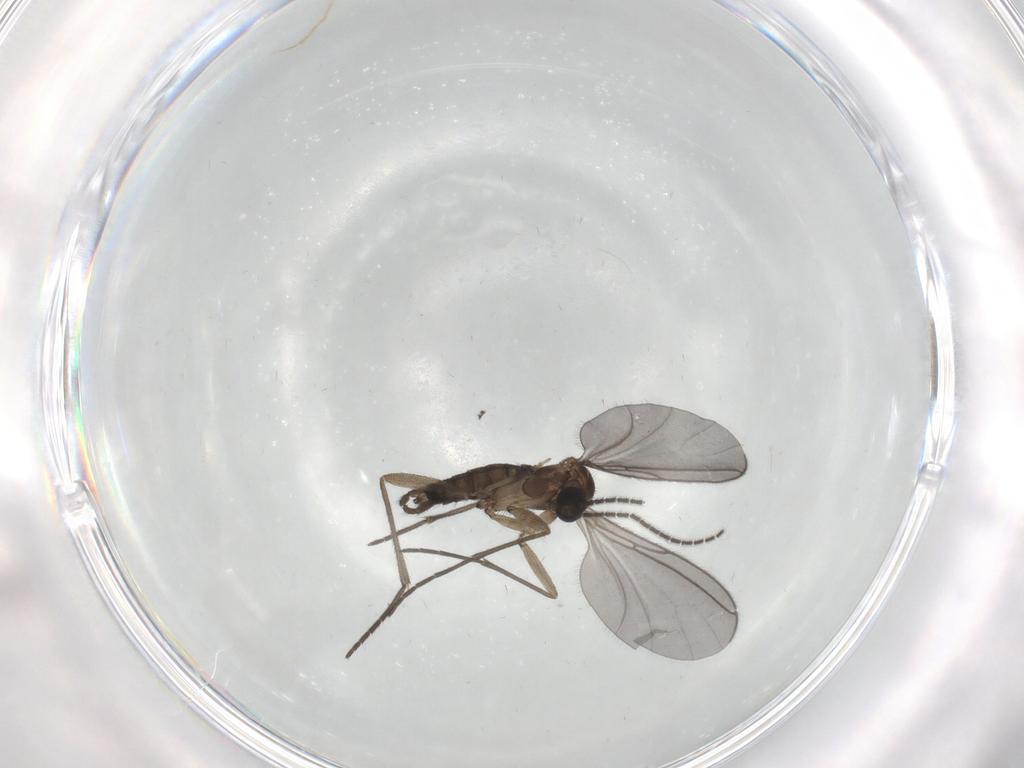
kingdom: Animalia
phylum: Arthropoda
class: Insecta
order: Diptera
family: Sciaridae
